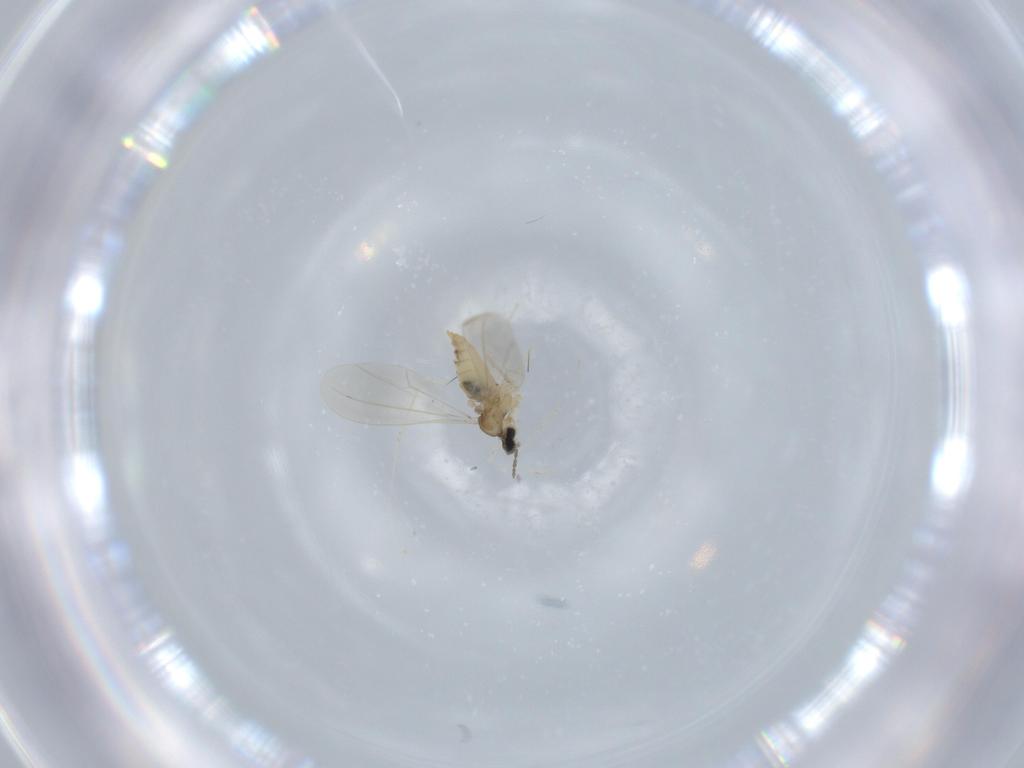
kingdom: Animalia
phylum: Arthropoda
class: Insecta
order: Diptera
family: Cecidomyiidae
